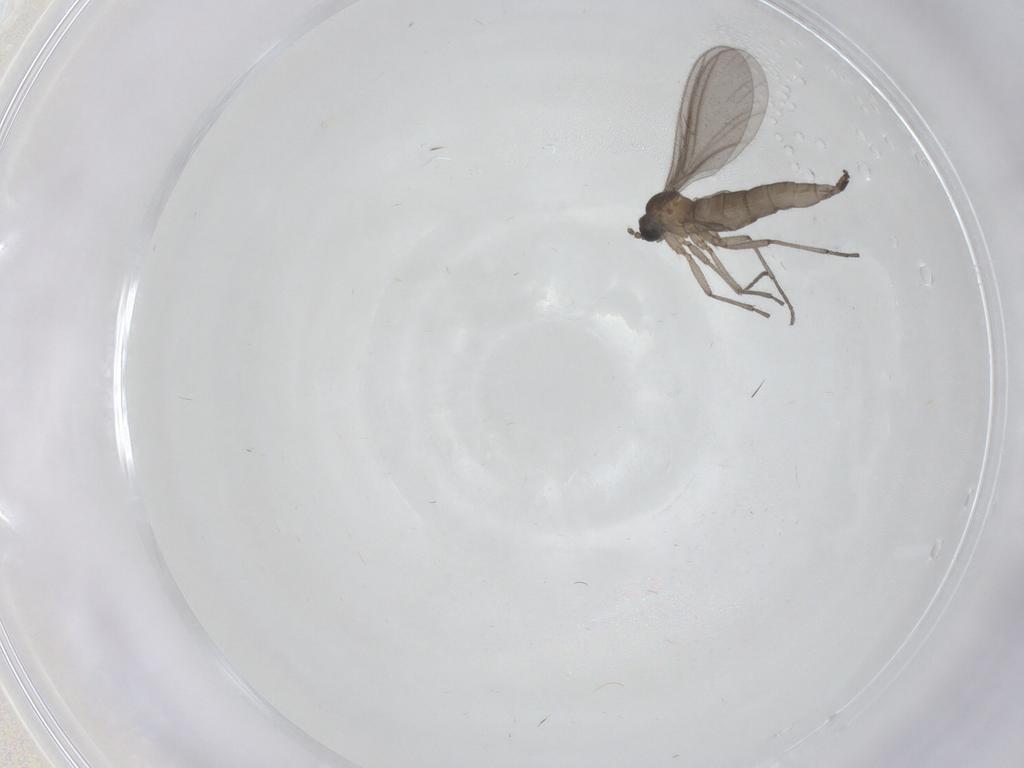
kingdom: Animalia
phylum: Arthropoda
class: Insecta
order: Diptera
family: Sciaridae
